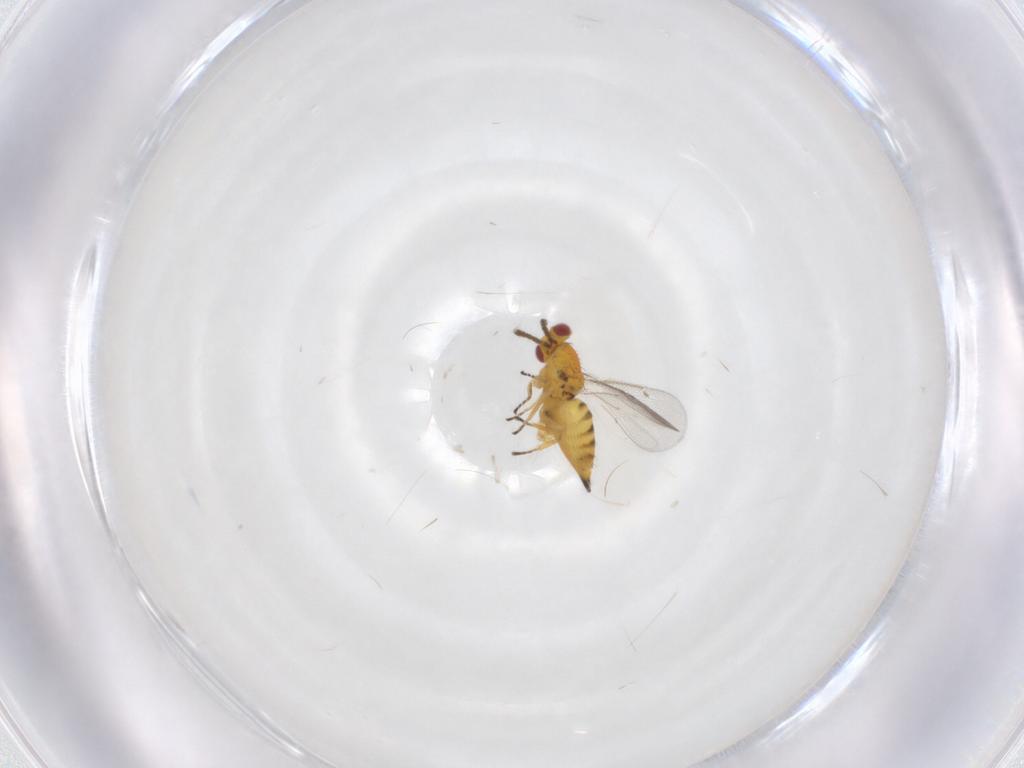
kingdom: Animalia
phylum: Arthropoda
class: Insecta
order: Hymenoptera
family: Eulophidae
